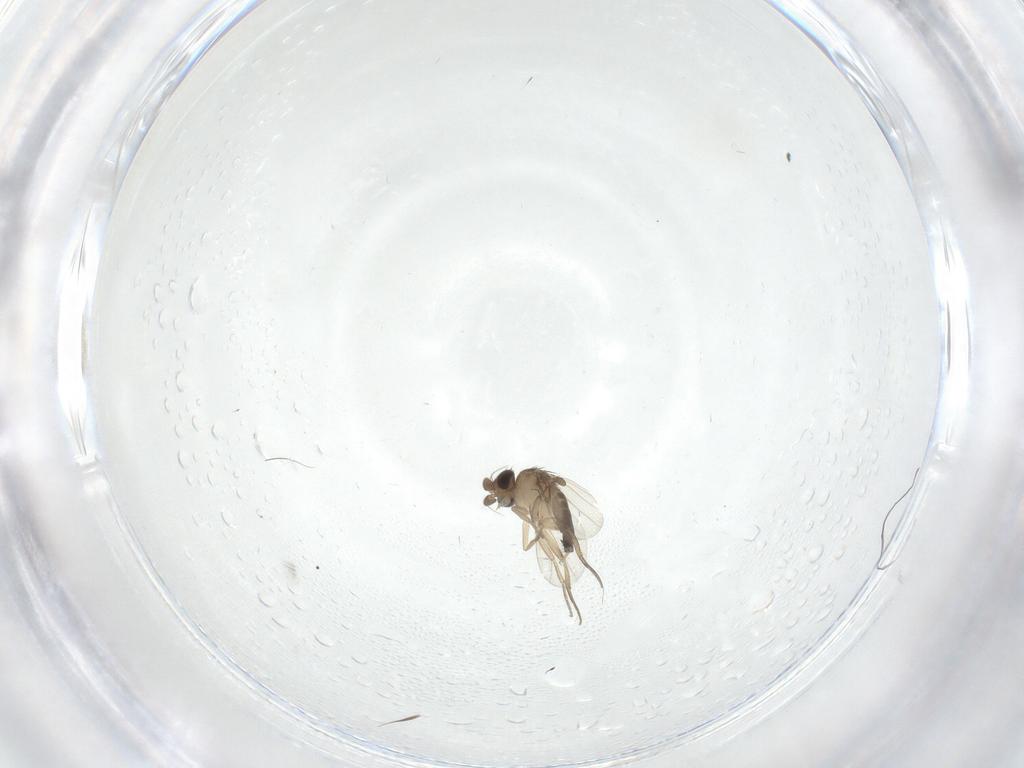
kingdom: Animalia
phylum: Arthropoda
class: Insecta
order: Diptera
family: Phoridae
